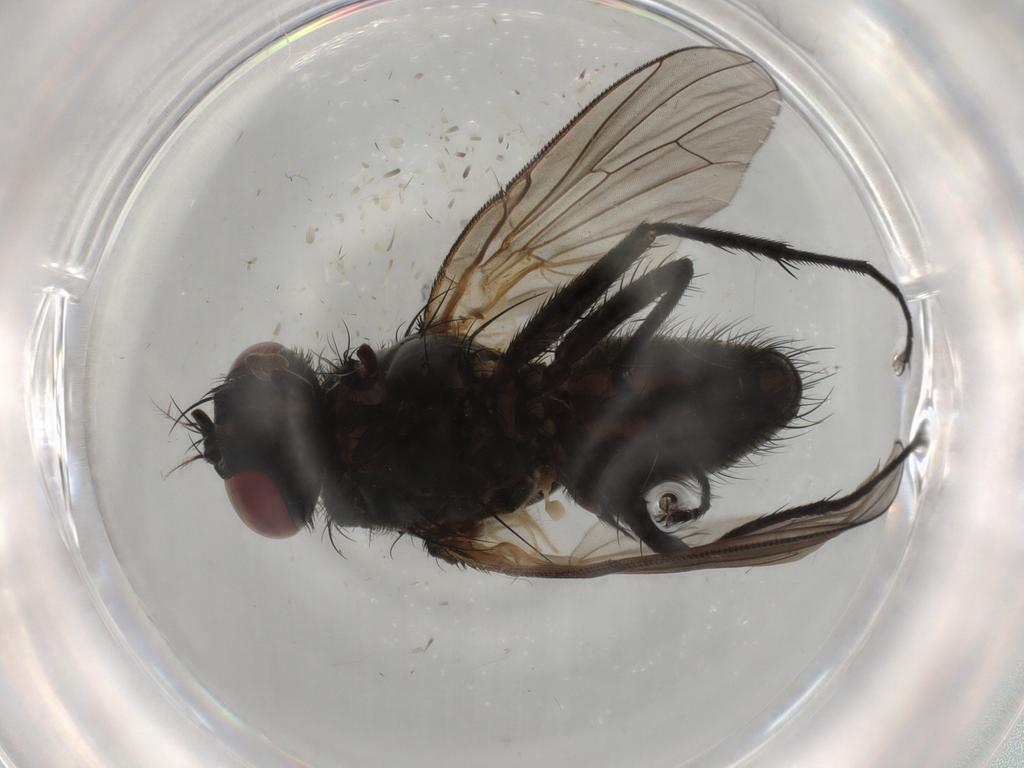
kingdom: Animalia
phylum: Arthropoda
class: Insecta
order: Diptera
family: Muscidae
